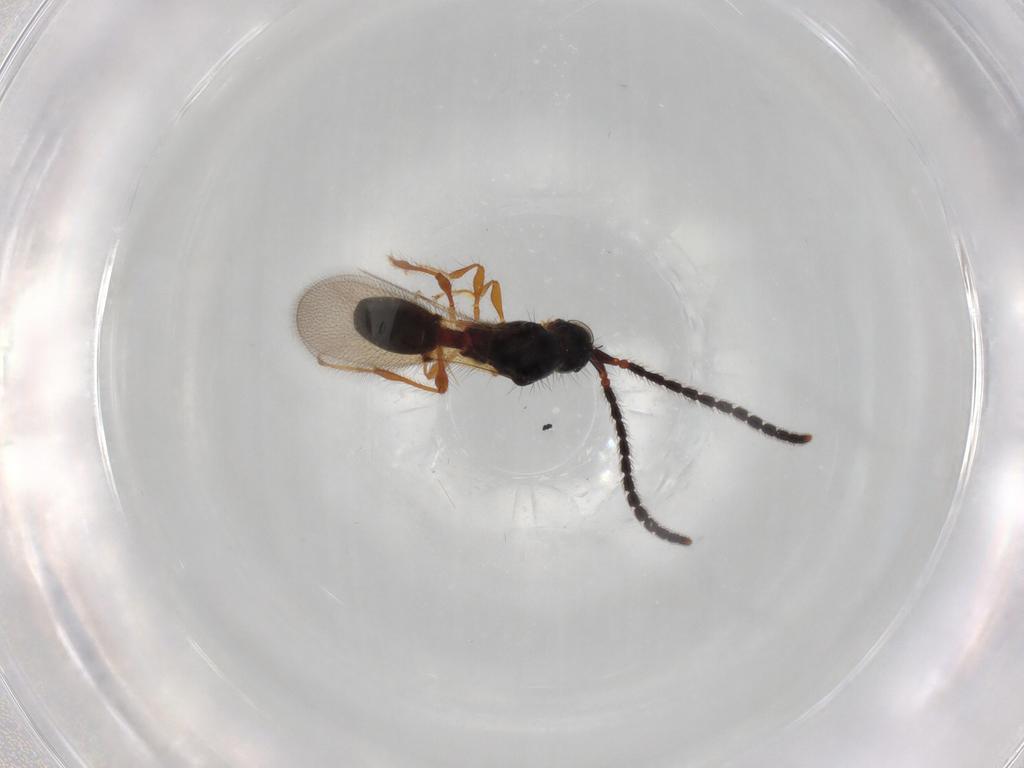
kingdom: Animalia
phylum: Arthropoda
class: Insecta
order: Hymenoptera
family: Diapriidae
